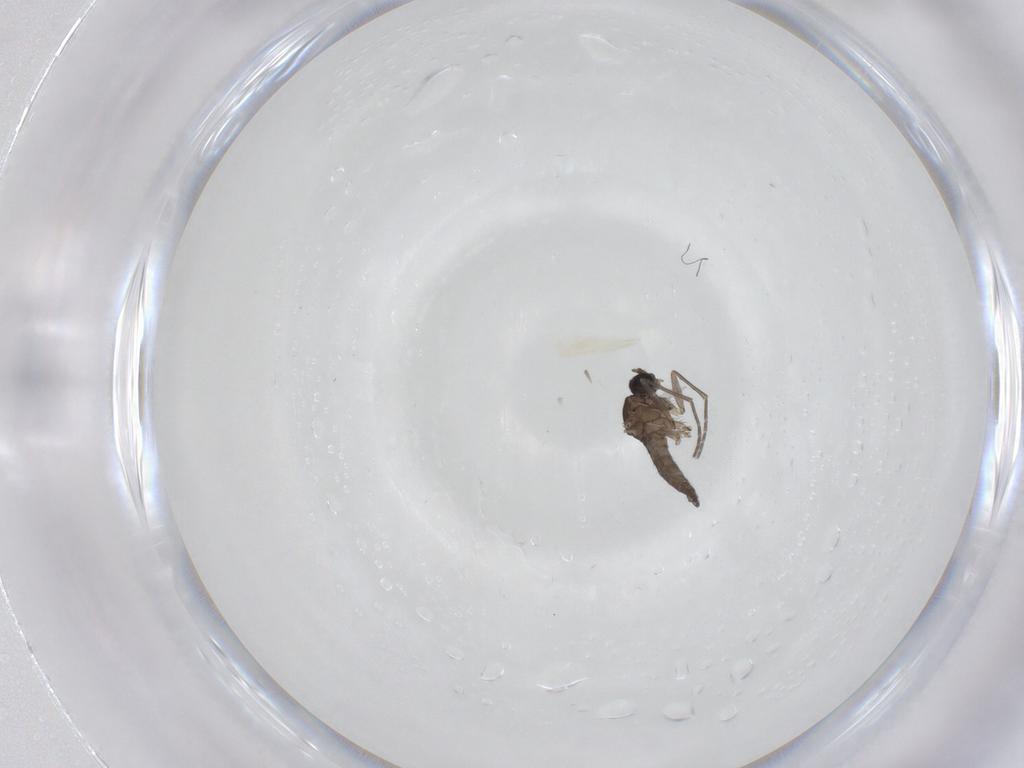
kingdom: Animalia
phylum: Arthropoda
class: Insecta
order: Diptera
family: Sciaridae
